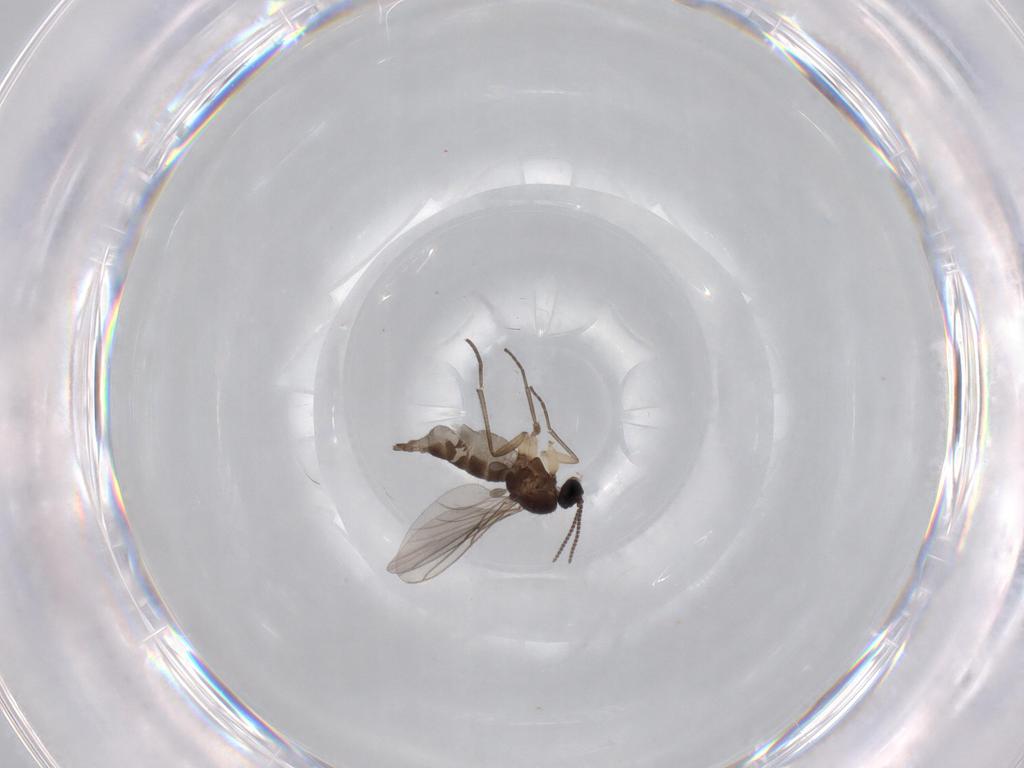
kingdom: Animalia
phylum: Arthropoda
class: Insecta
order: Diptera
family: Sciaridae
